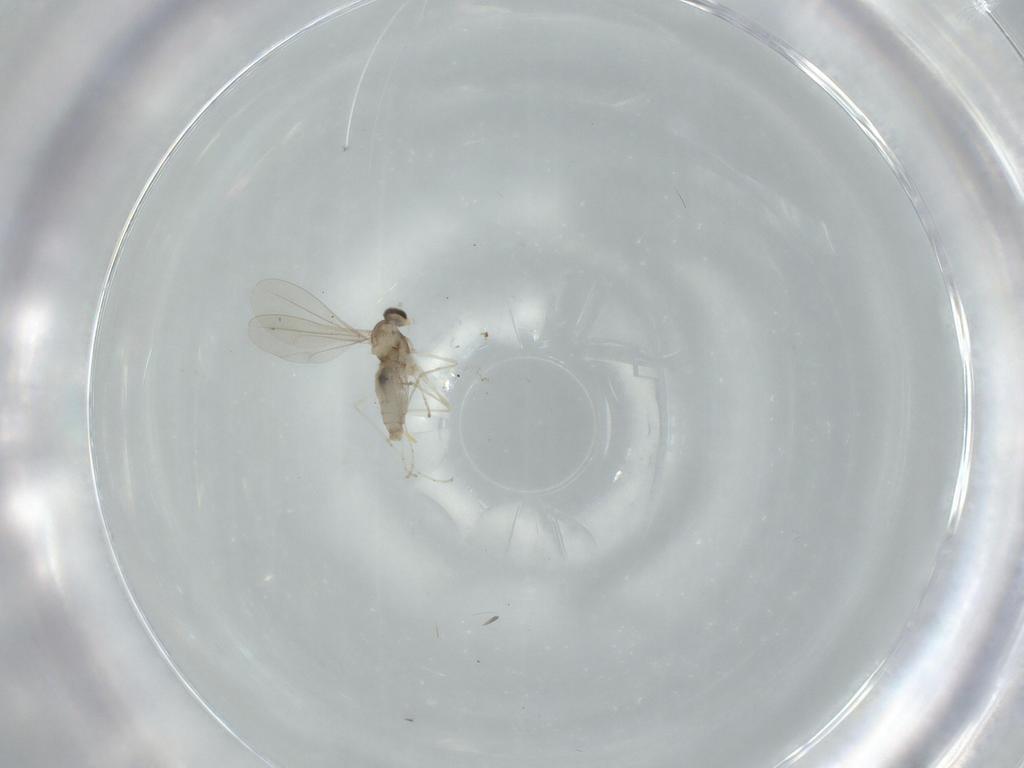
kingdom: Animalia
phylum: Arthropoda
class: Insecta
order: Diptera
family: Cecidomyiidae
